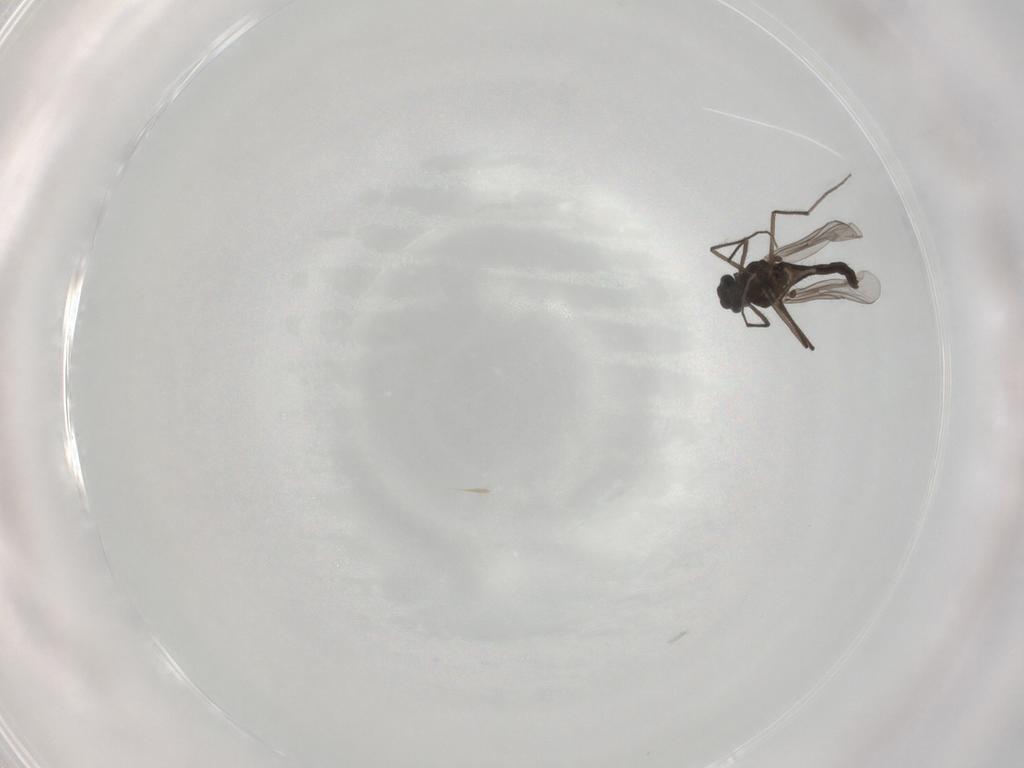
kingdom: Animalia
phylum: Arthropoda
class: Insecta
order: Diptera
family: Chironomidae
